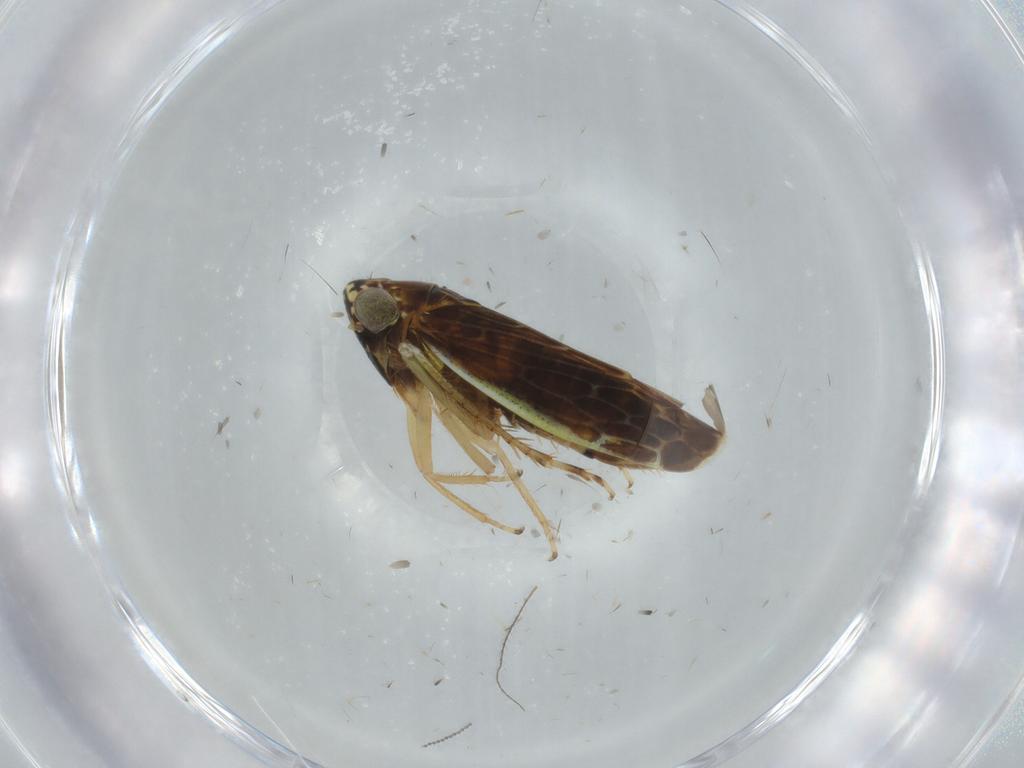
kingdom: Animalia
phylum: Arthropoda
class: Insecta
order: Hemiptera
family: Cicadellidae
